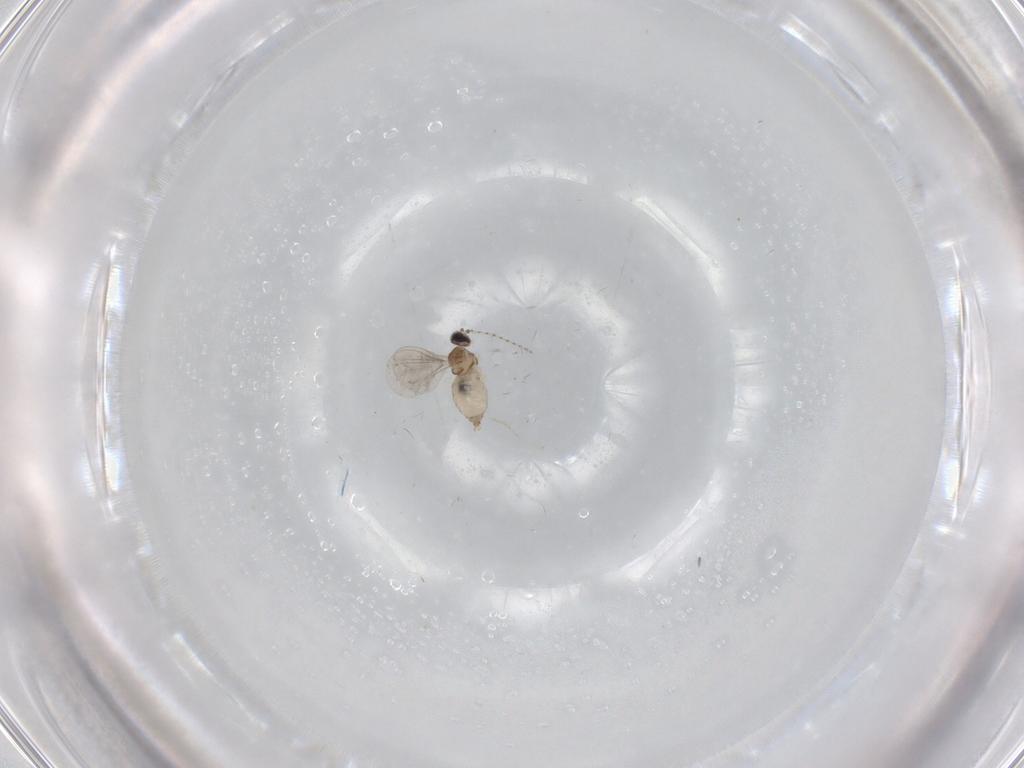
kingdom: Animalia
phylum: Arthropoda
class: Insecta
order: Diptera
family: Cecidomyiidae
